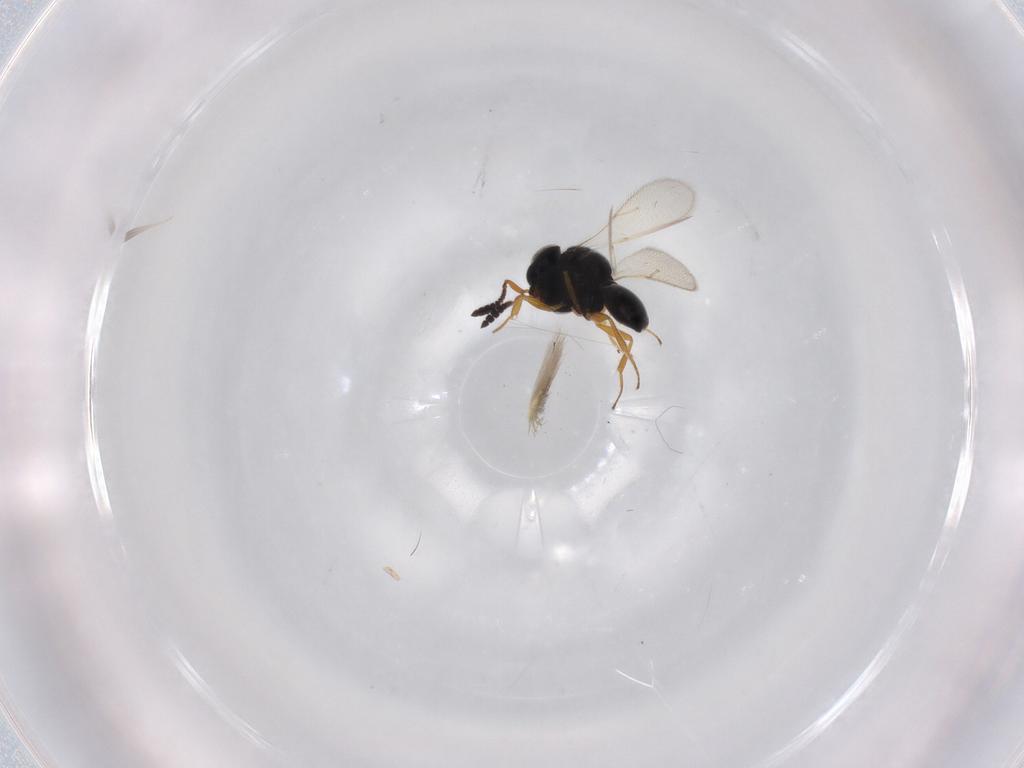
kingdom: Animalia
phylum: Arthropoda
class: Insecta
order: Hymenoptera
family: Scelionidae
